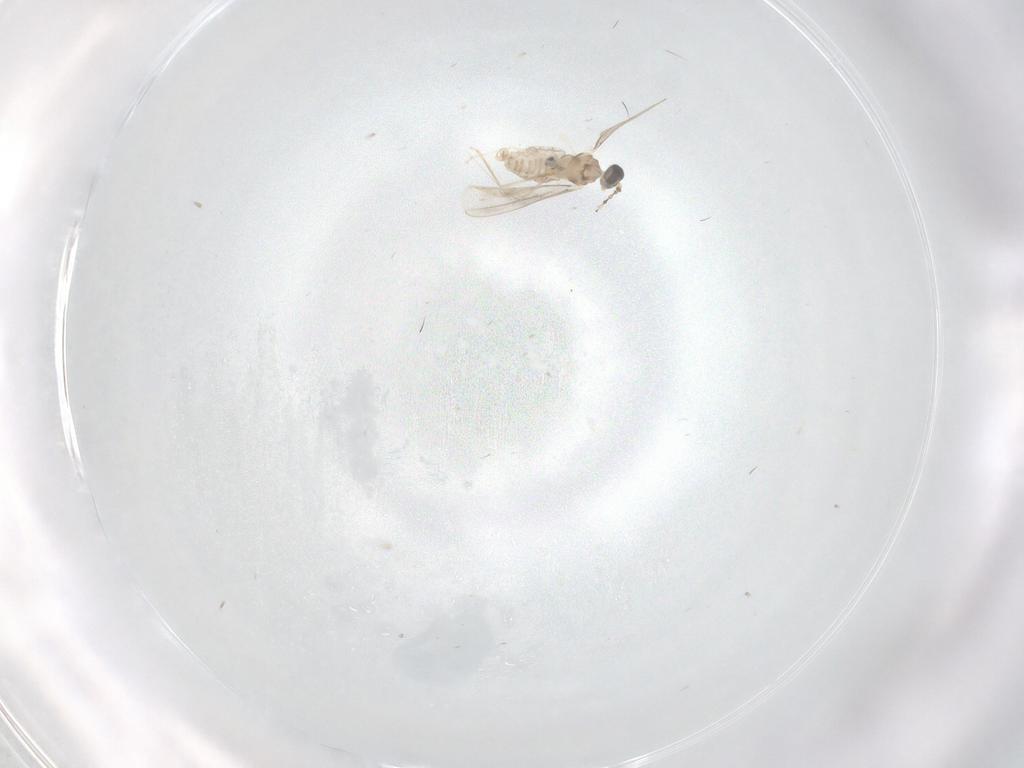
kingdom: Animalia
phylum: Arthropoda
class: Insecta
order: Diptera
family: Cecidomyiidae
